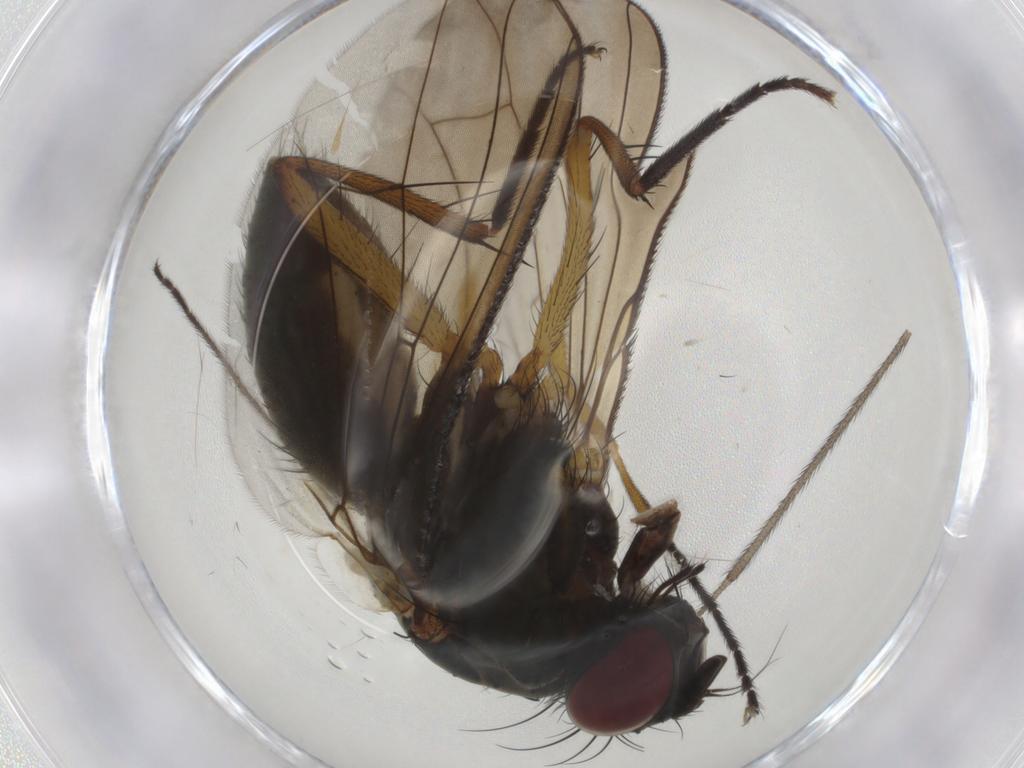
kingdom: Animalia
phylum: Arthropoda
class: Insecta
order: Diptera
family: Muscidae
